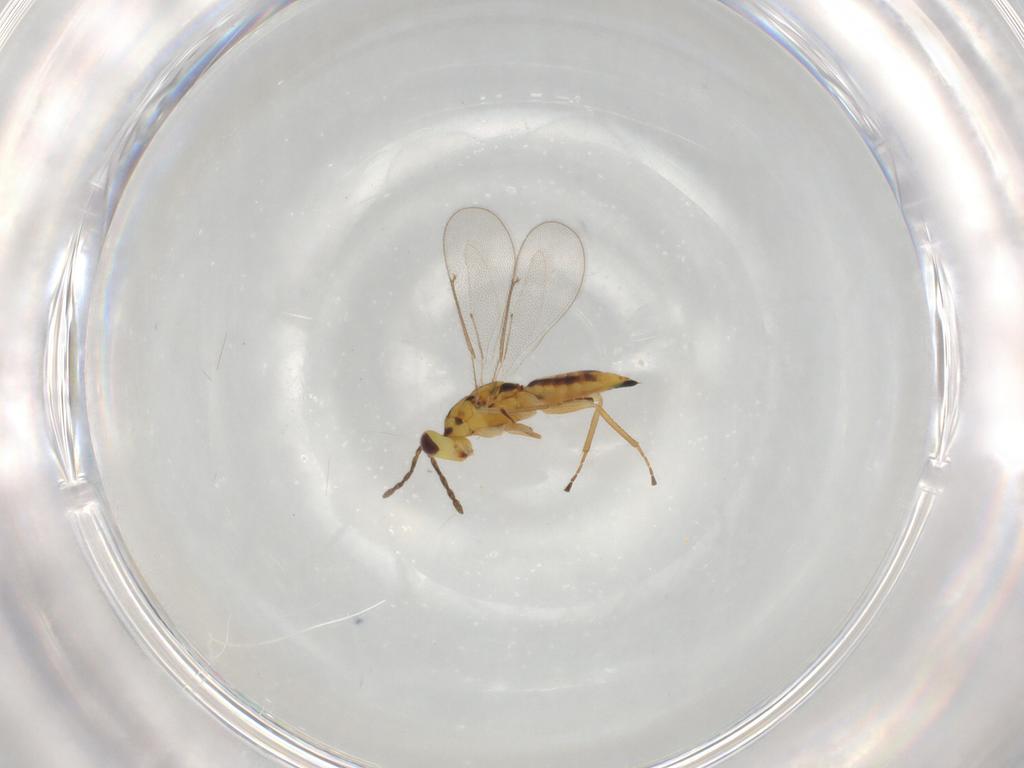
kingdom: Animalia
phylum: Arthropoda
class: Insecta
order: Hymenoptera
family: Eulophidae
